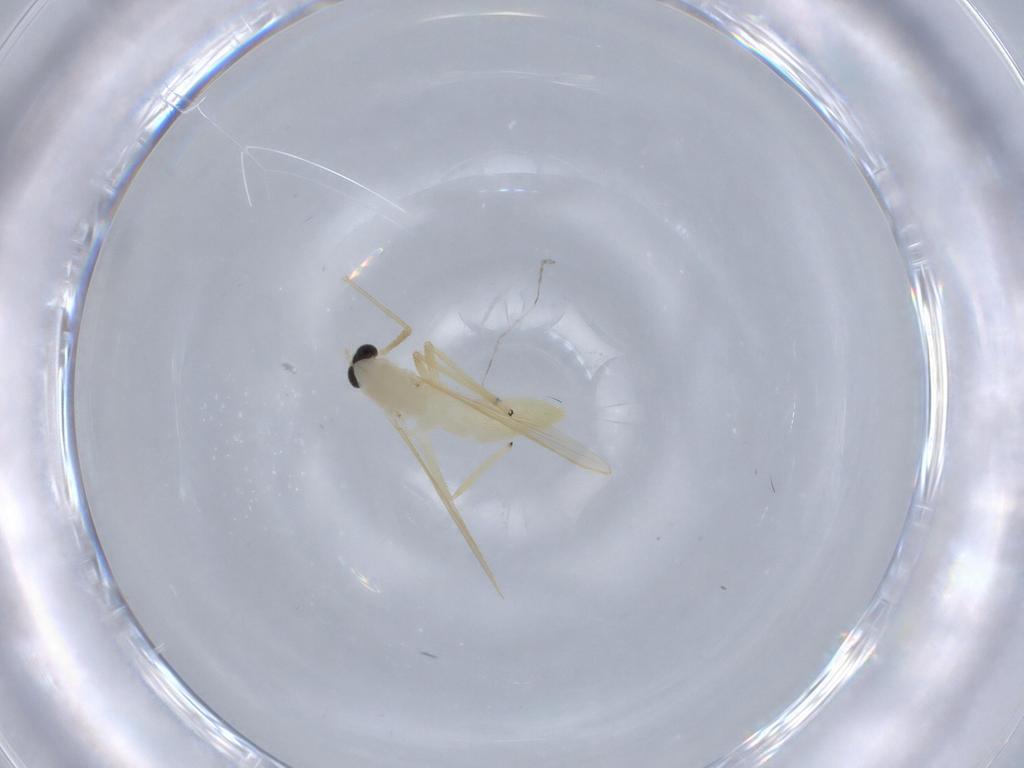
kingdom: Animalia
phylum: Arthropoda
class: Insecta
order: Diptera
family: Chironomidae
